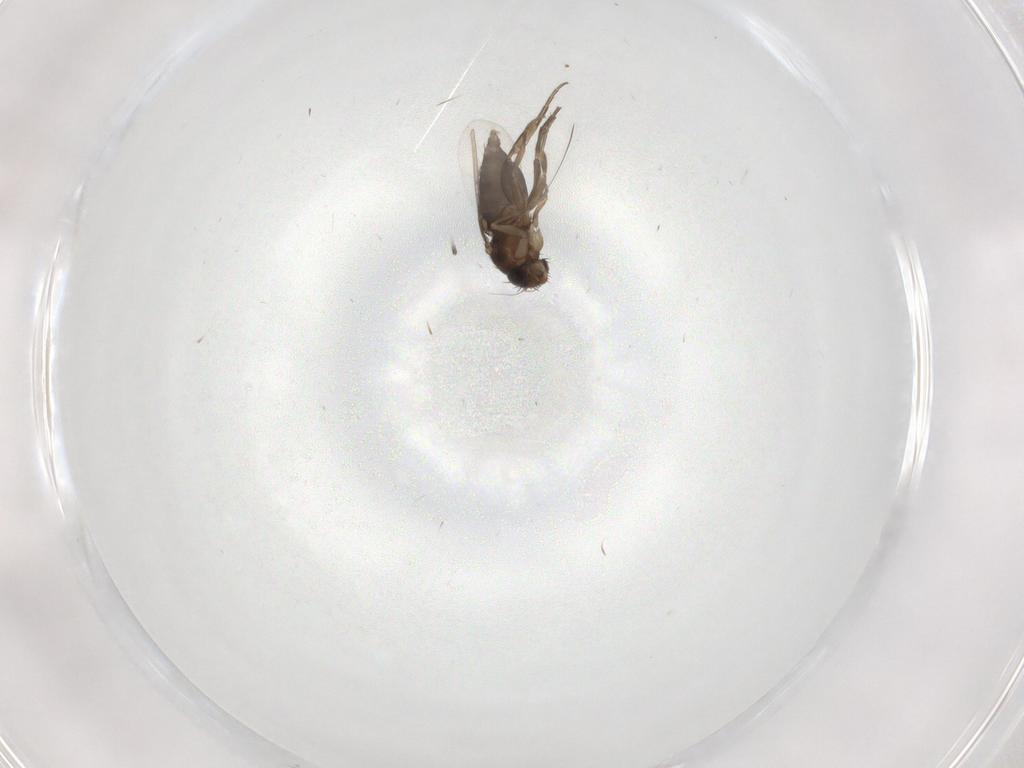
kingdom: Animalia
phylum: Arthropoda
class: Insecta
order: Diptera
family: Phoridae
